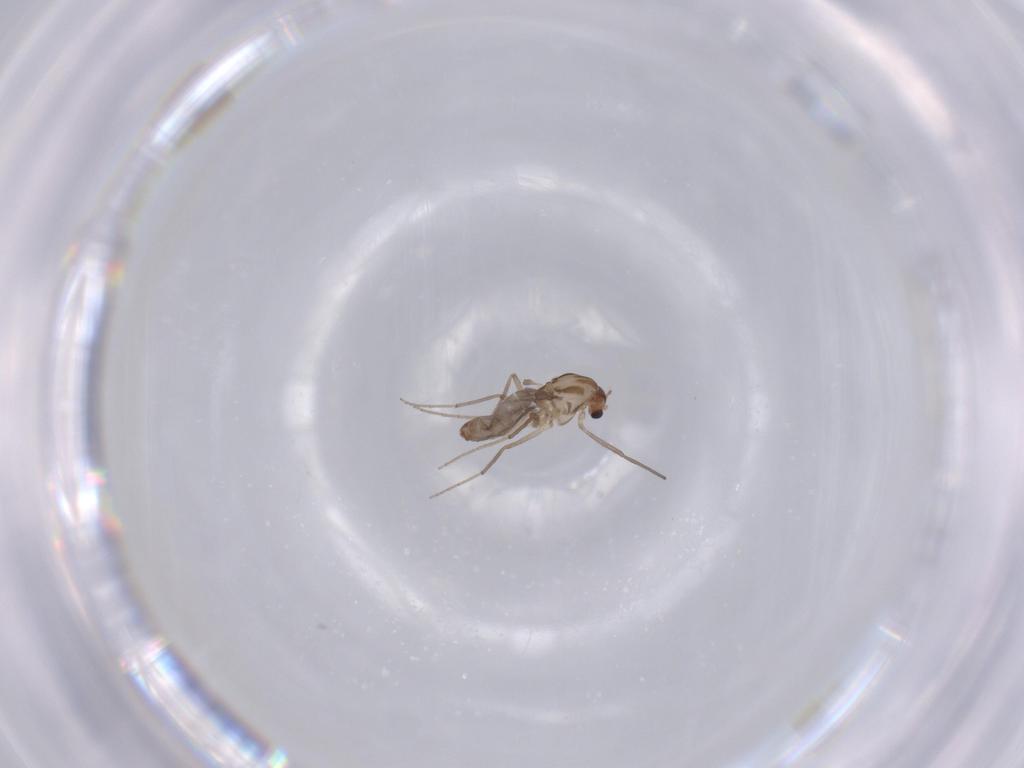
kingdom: Animalia
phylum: Arthropoda
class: Insecta
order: Diptera
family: Chironomidae
